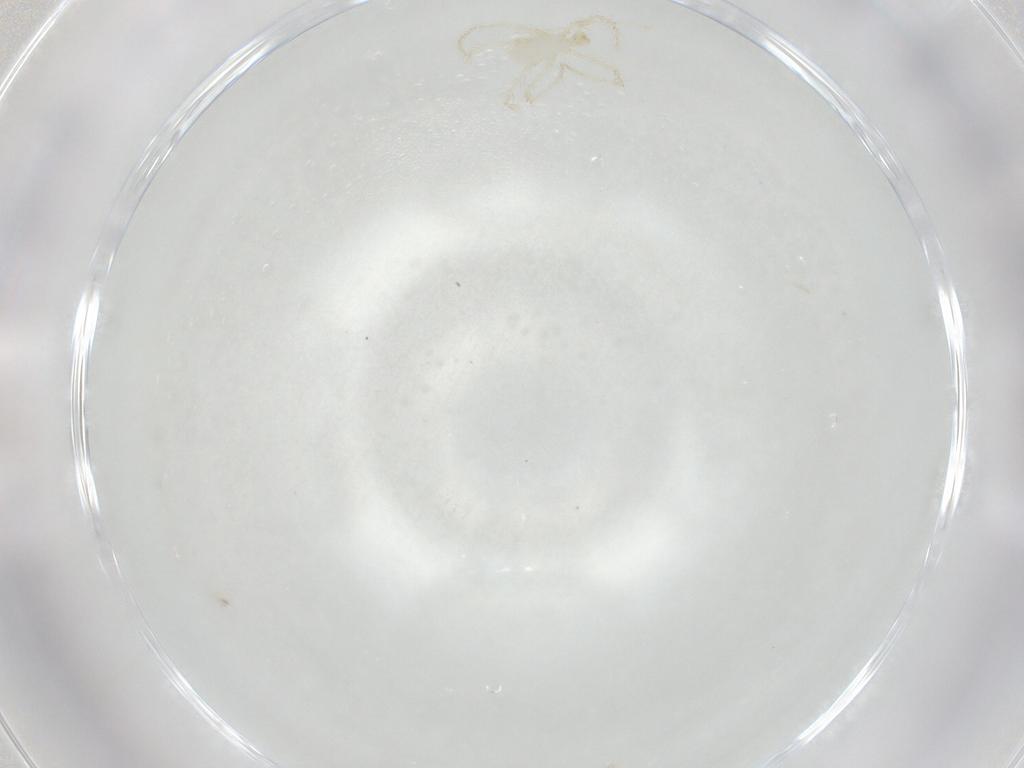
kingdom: Animalia
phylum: Arthropoda
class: Arachnida
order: Trombidiformes
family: Erythraeidae
